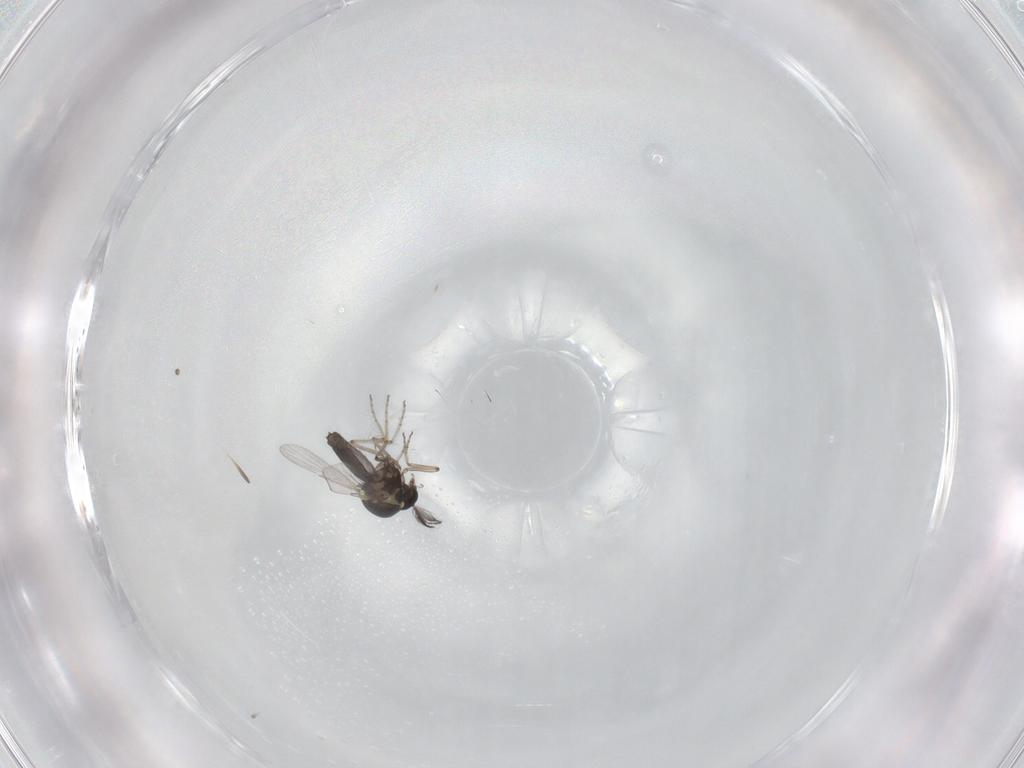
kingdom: Animalia
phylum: Arthropoda
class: Insecta
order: Diptera
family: Ceratopogonidae
